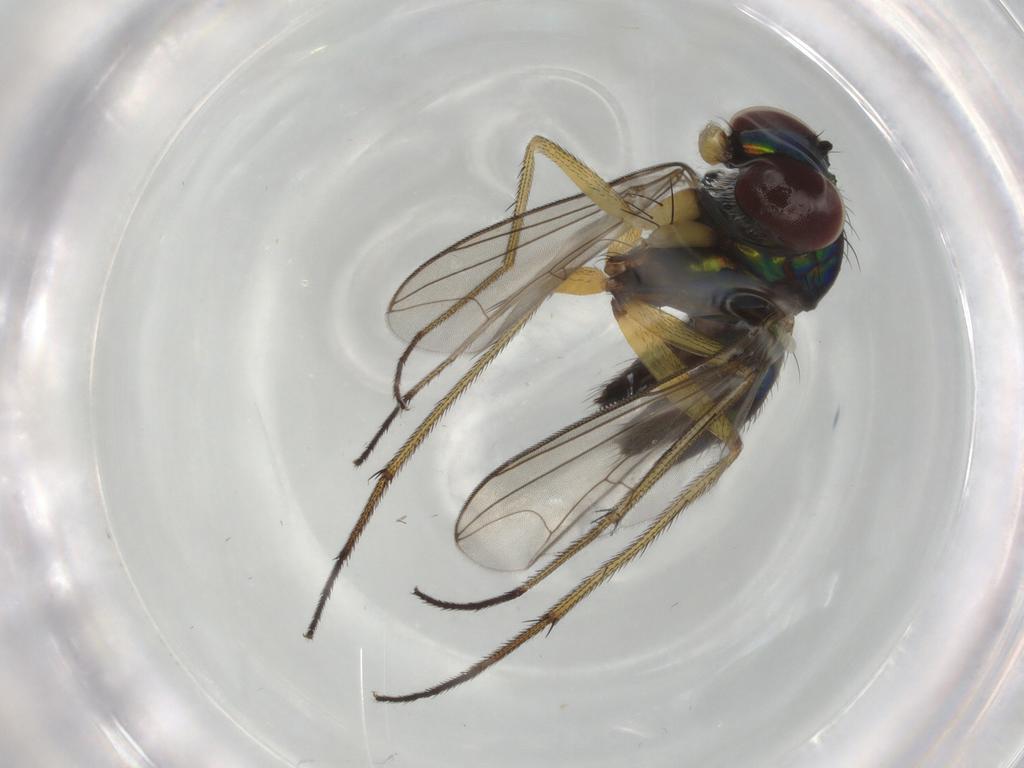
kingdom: Animalia
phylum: Arthropoda
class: Insecta
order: Diptera
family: Dolichopodidae
